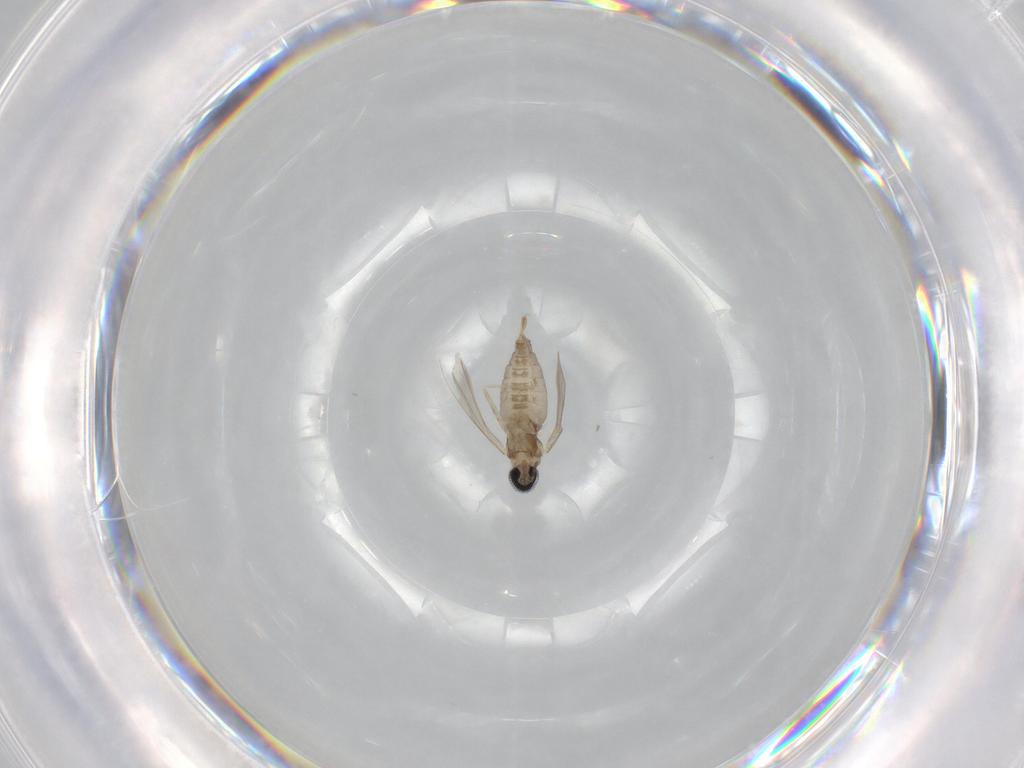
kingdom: Animalia
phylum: Arthropoda
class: Insecta
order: Diptera
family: Cecidomyiidae
